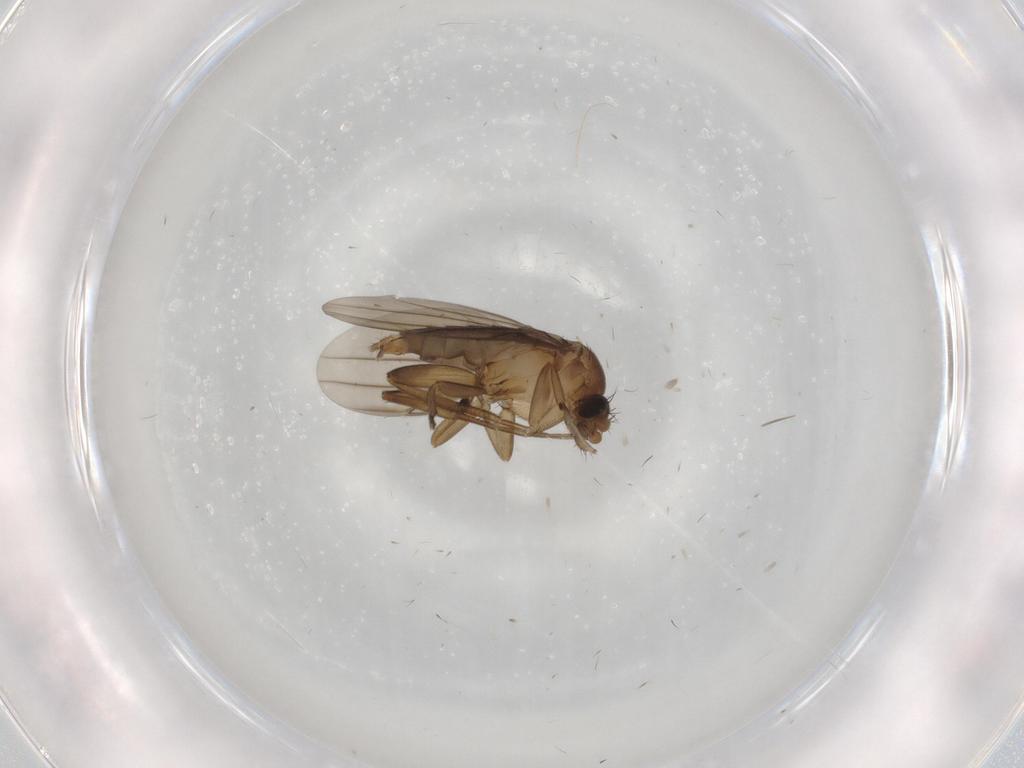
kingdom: Animalia
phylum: Arthropoda
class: Insecta
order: Diptera
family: Phoridae
